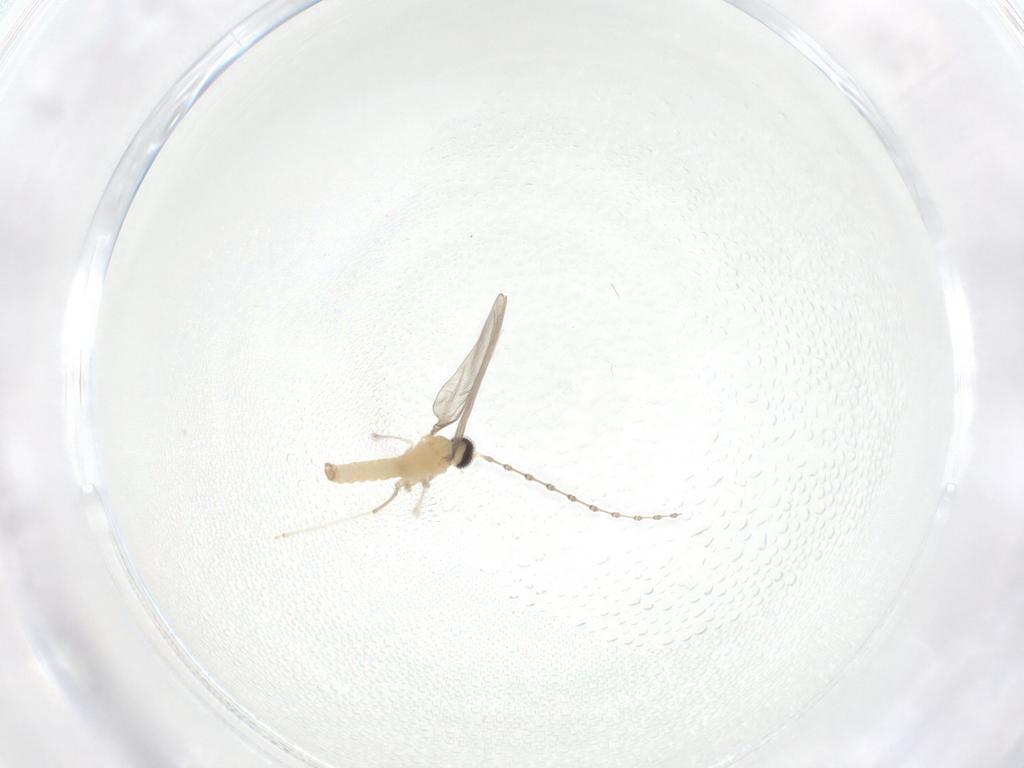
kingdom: Animalia
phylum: Arthropoda
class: Insecta
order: Diptera
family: Cecidomyiidae
